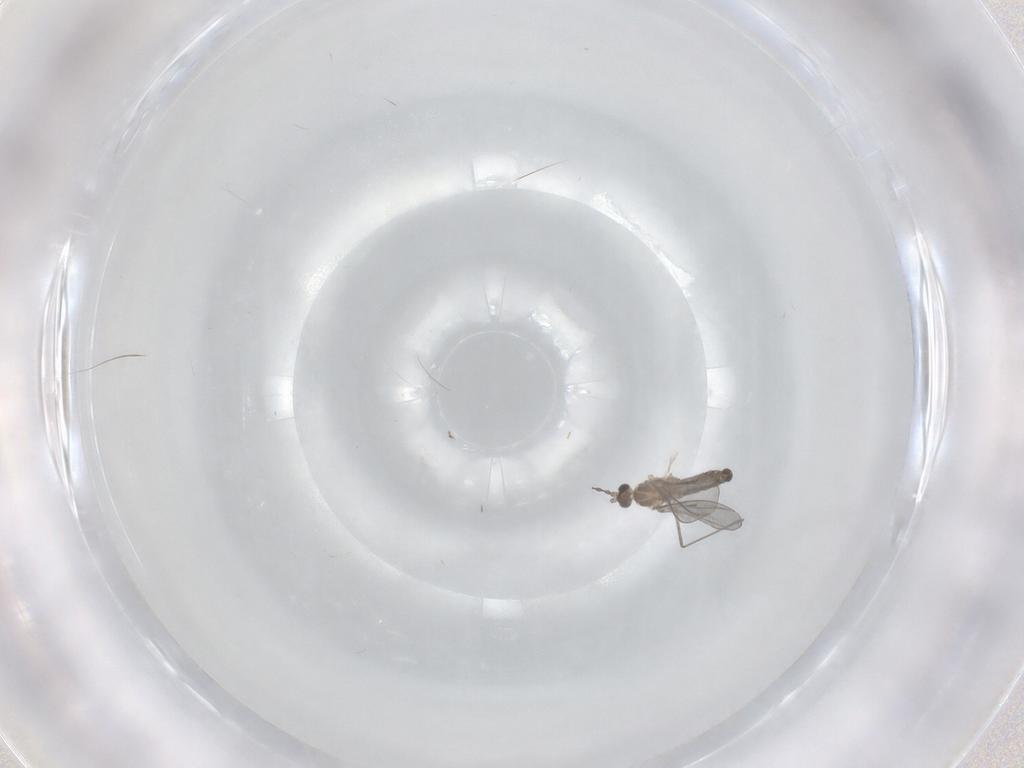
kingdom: Animalia
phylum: Arthropoda
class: Insecta
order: Diptera
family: Cecidomyiidae
